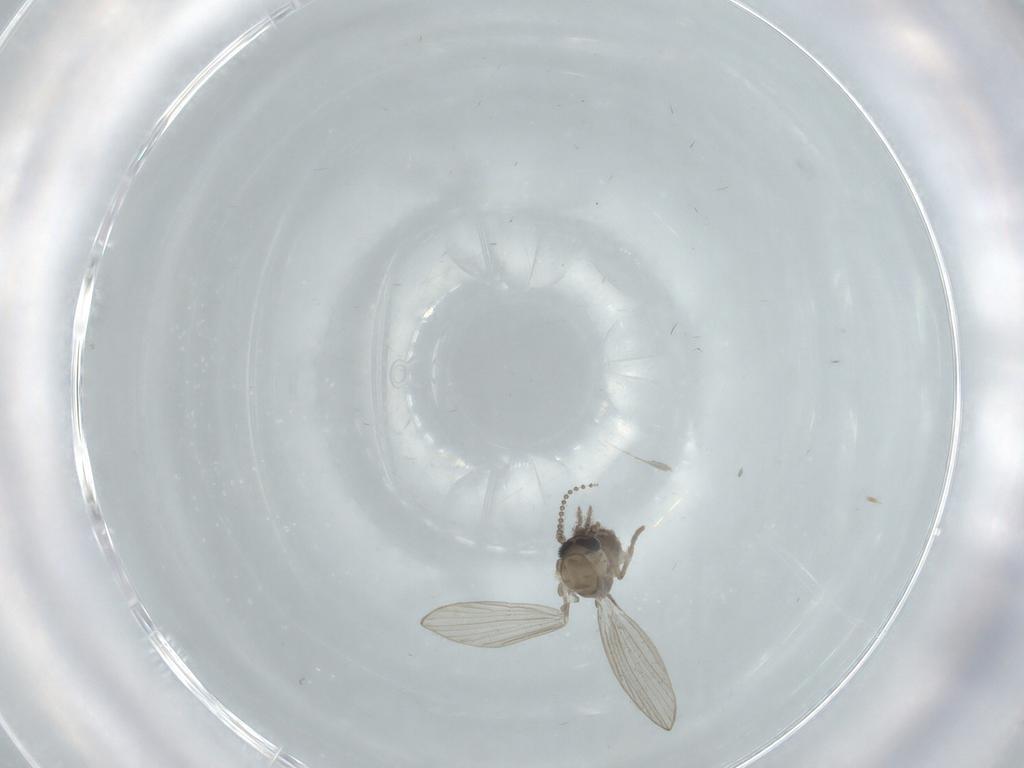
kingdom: Animalia
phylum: Arthropoda
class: Insecta
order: Diptera
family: Psychodidae
